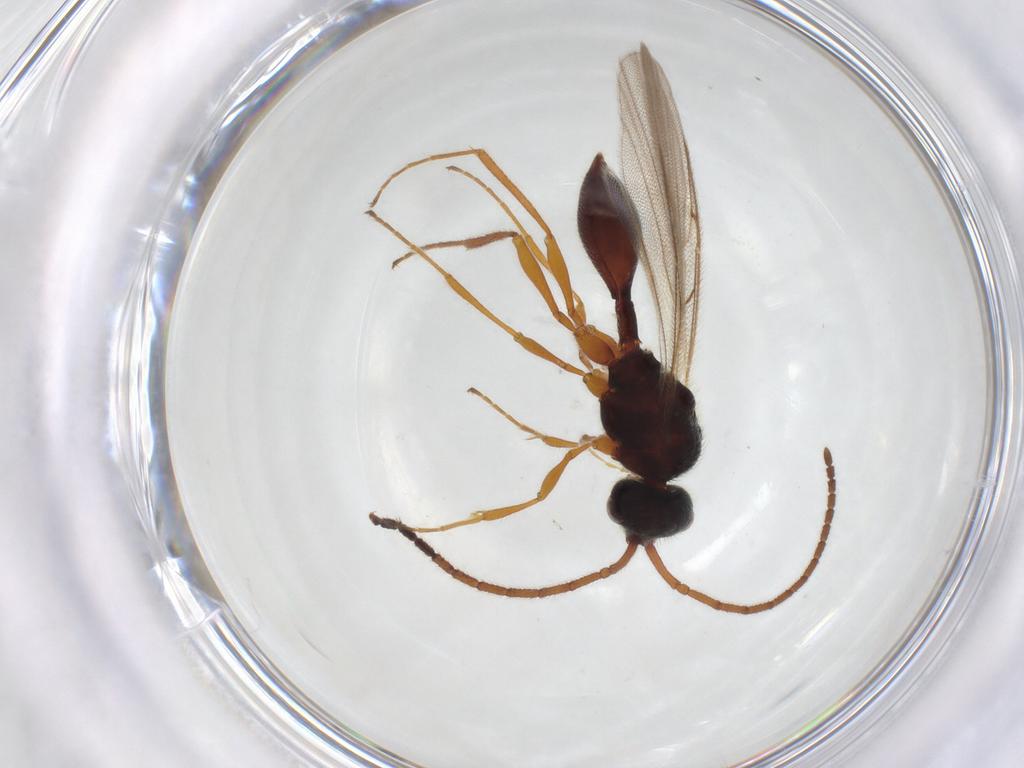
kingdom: Animalia
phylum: Arthropoda
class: Insecta
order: Hymenoptera
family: Diapriidae
